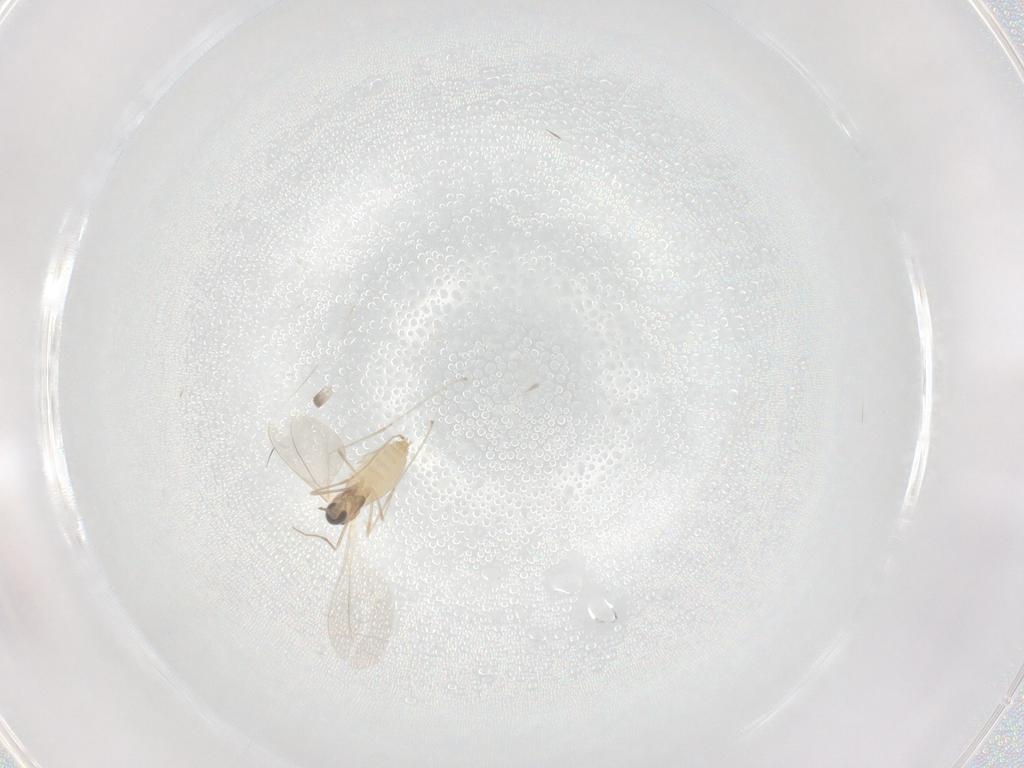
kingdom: Animalia
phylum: Arthropoda
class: Insecta
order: Diptera
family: Cecidomyiidae
